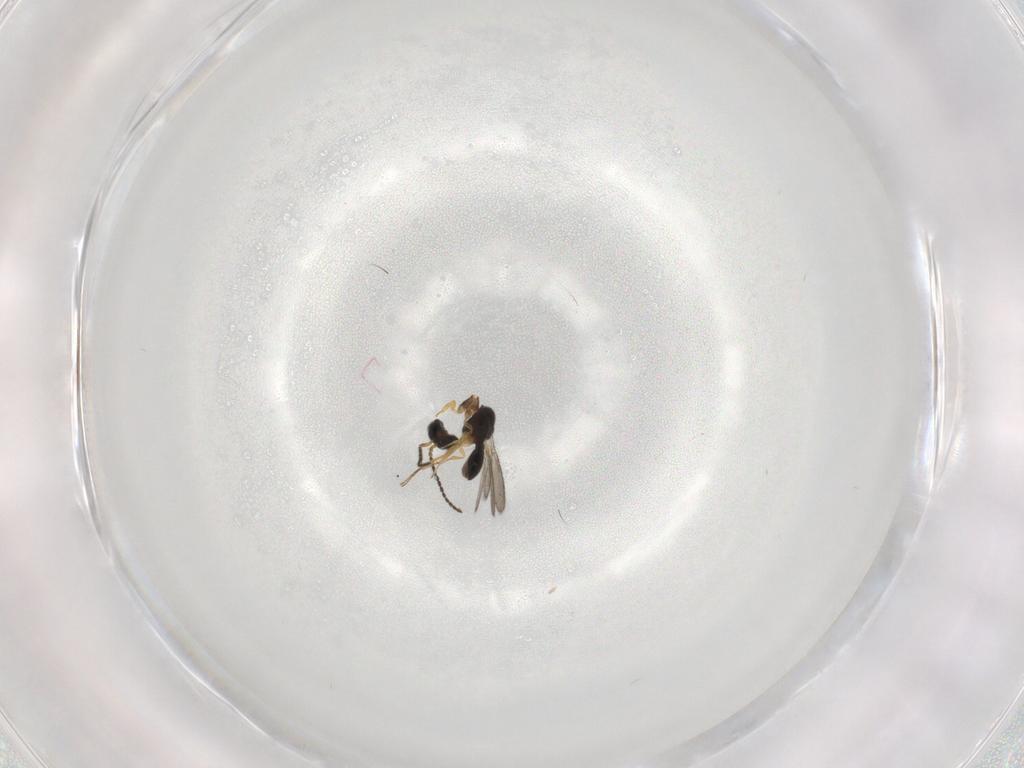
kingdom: Animalia
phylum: Arthropoda
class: Insecta
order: Hymenoptera
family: Scelionidae
